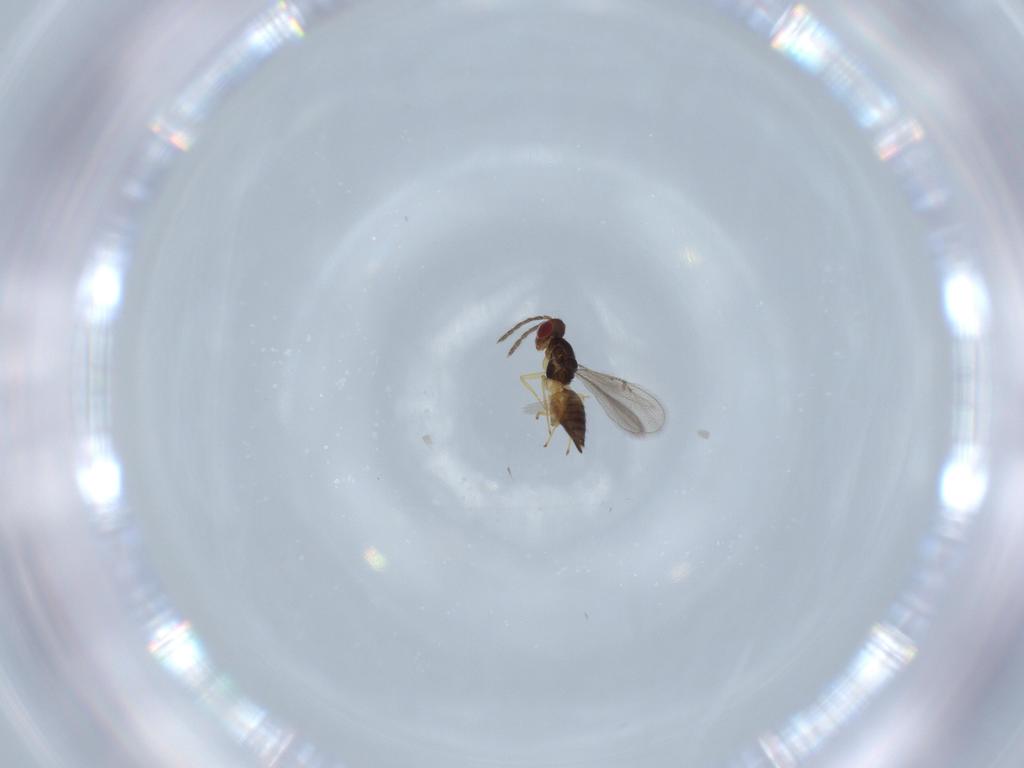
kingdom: Animalia
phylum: Arthropoda
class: Insecta
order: Hymenoptera
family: Eulophidae
